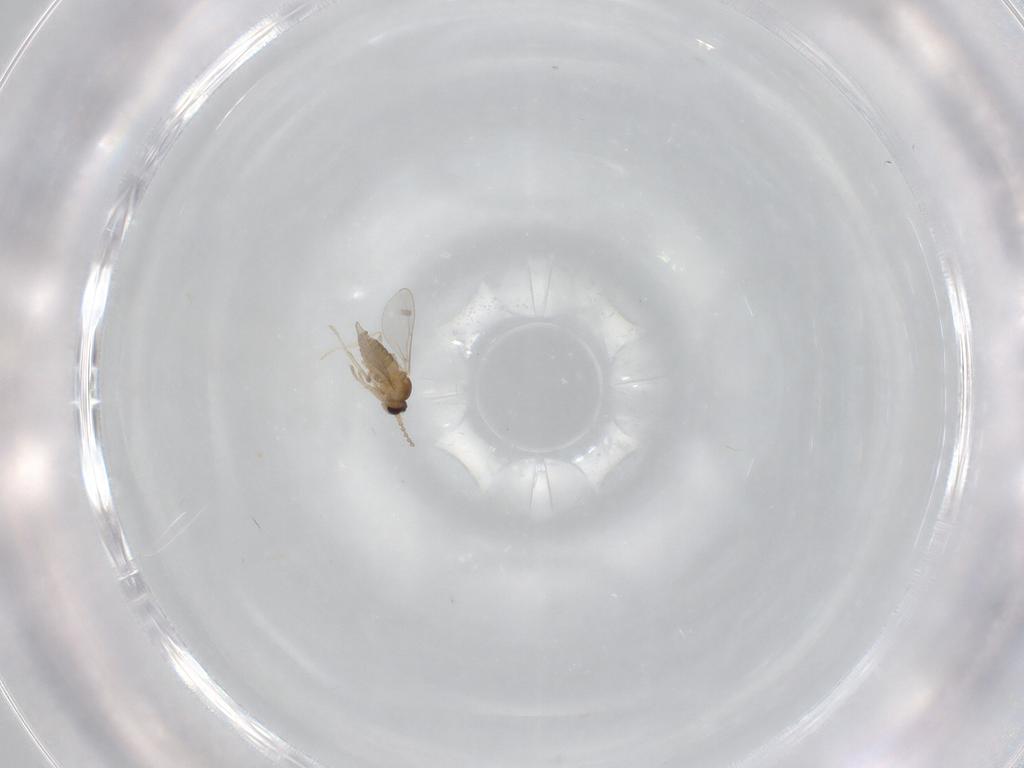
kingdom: Animalia
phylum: Arthropoda
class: Insecta
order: Diptera
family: Cecidomyiidae
